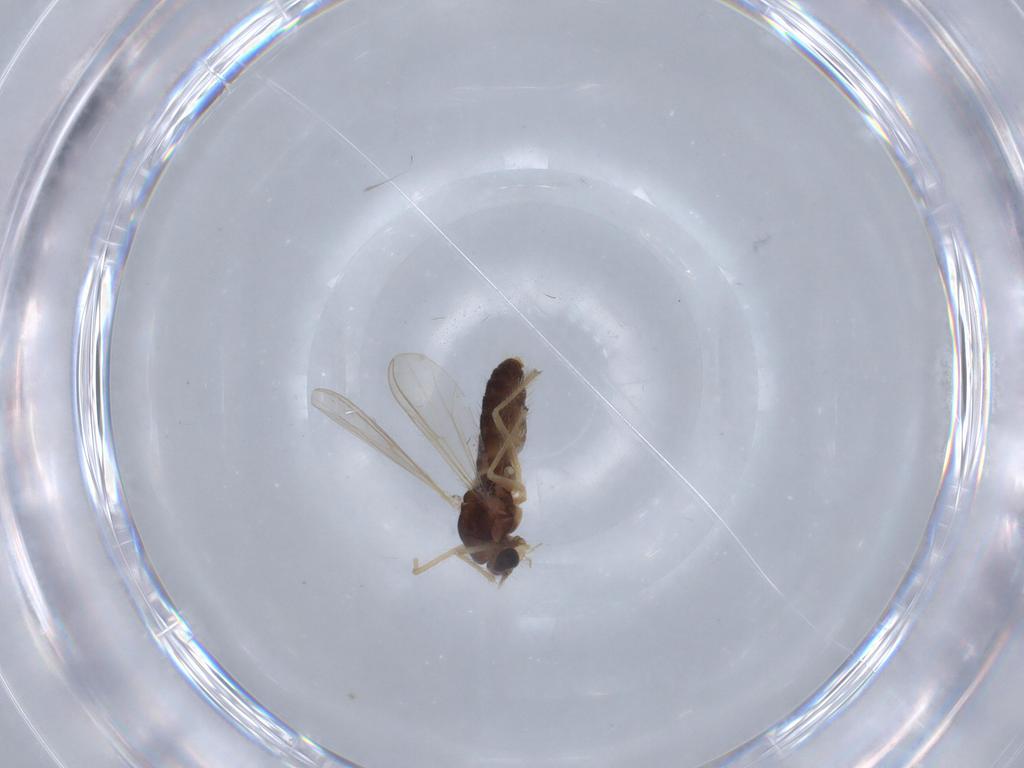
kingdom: Animalia
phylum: Arthropoda
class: Insecta
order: Diptera
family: Chironomidae
